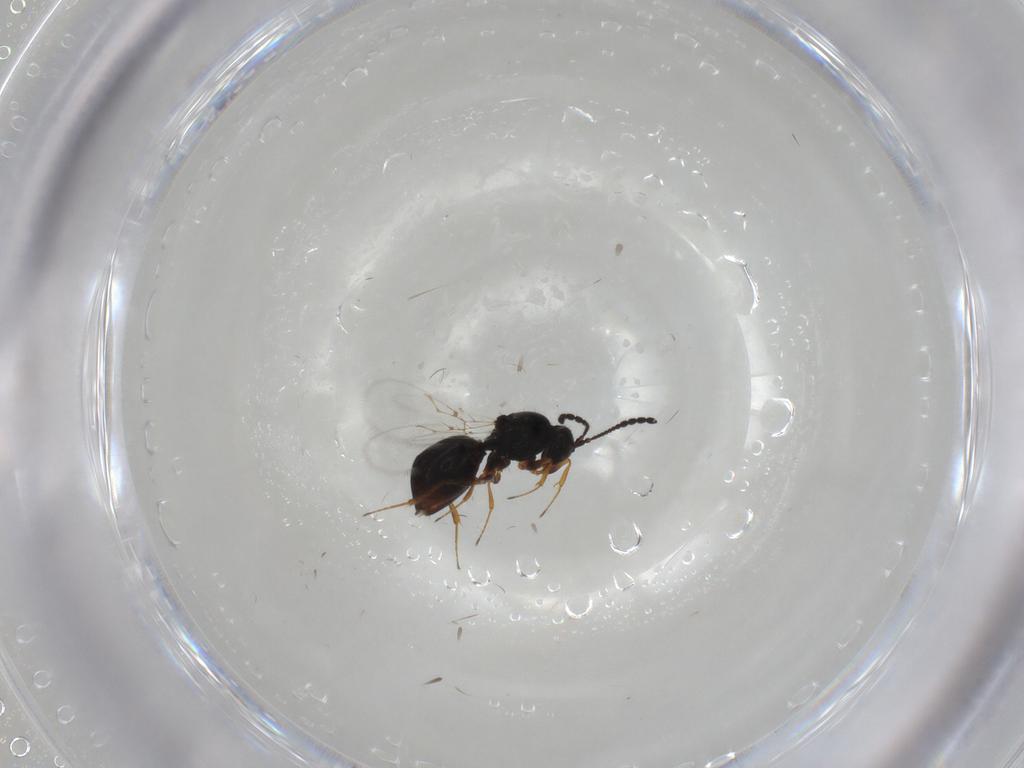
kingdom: Animalia
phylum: Arthropoda
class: Insecta
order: Hymenoptera
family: Figitidae
